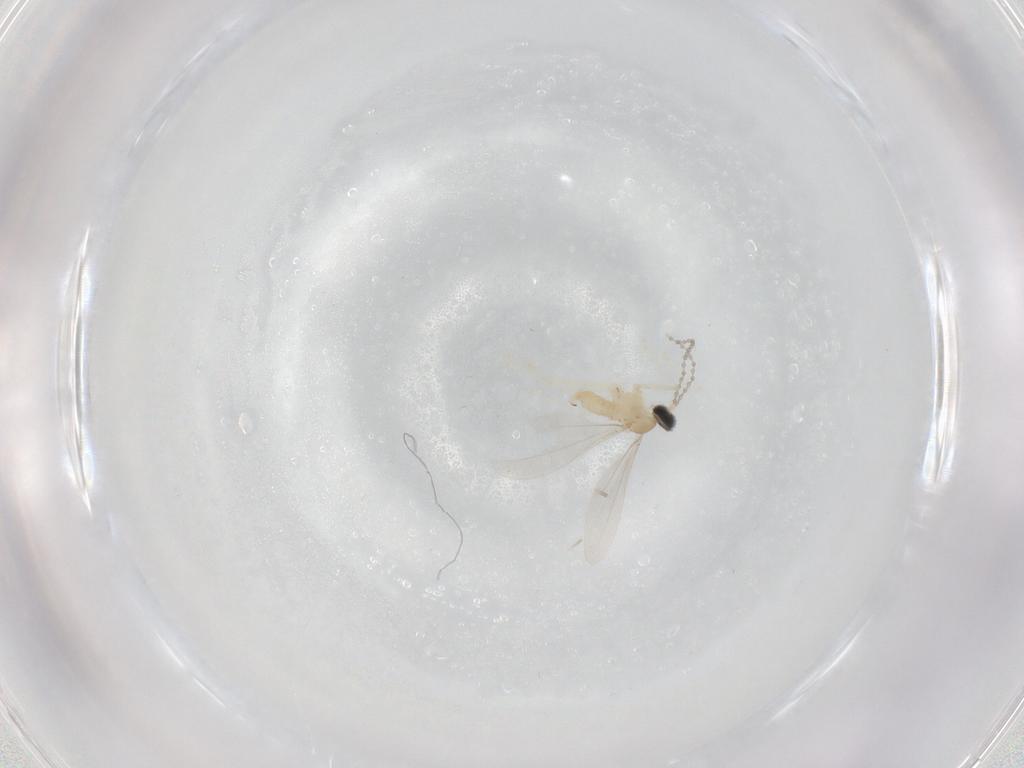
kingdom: Animalia
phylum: Arthropoda
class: Insecta
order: Diptera
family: Cecidomyiidae
